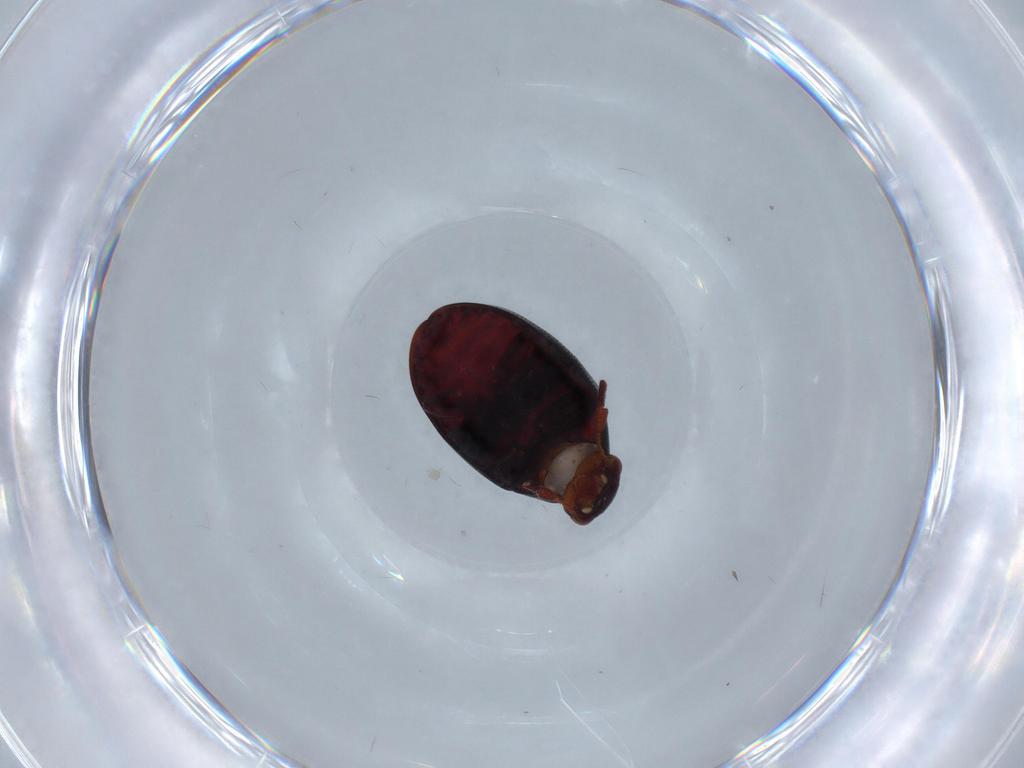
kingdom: Animalia
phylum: Arthropoda
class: Insecta
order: Coleoptera
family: Ptinidae
